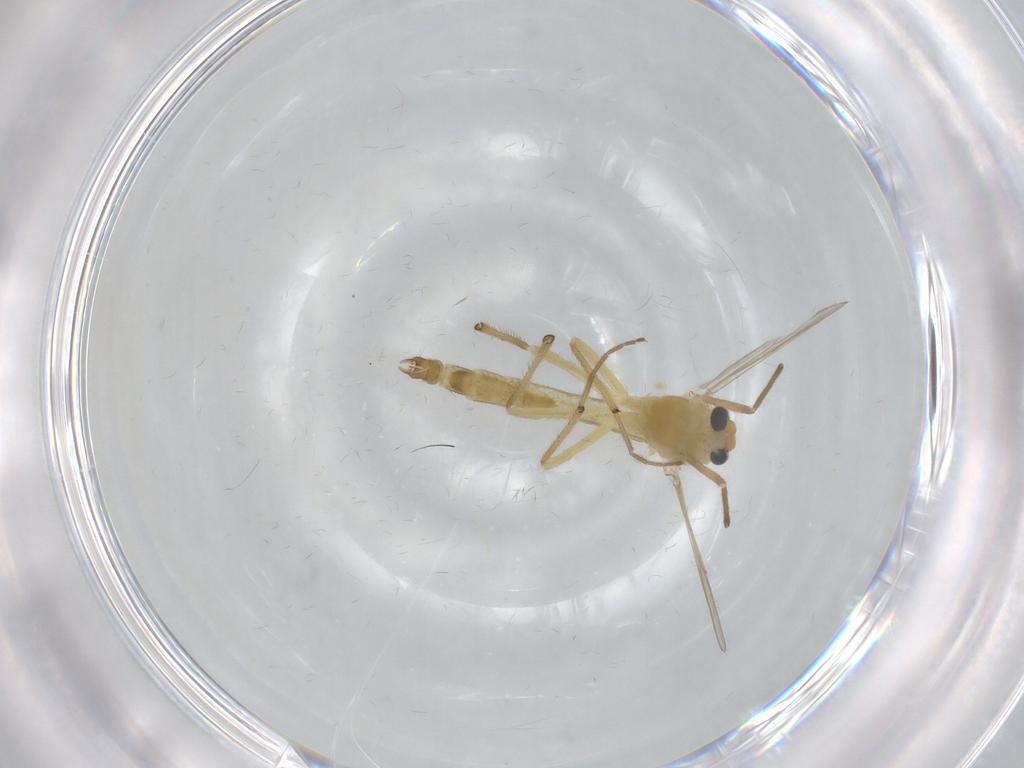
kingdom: Animalia
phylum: Arthropoda
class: Insecta
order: Diptera
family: Chironomidae
